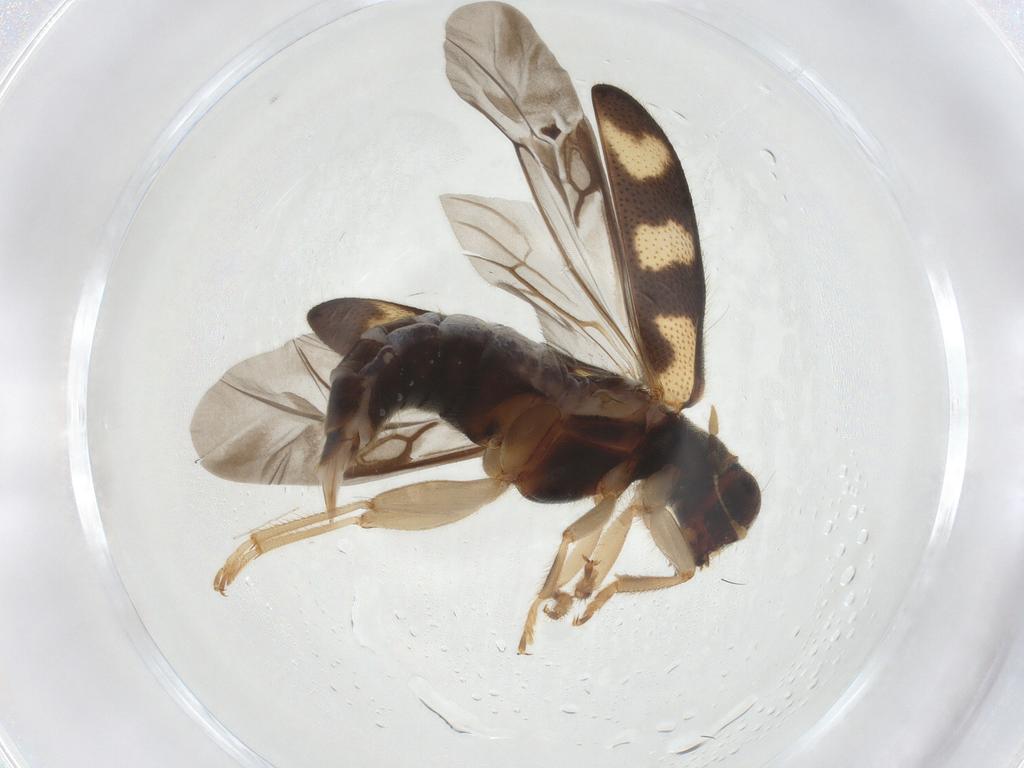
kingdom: Animalia
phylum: Arthropoda
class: Insecta
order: Coleoptera
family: Cleridae
